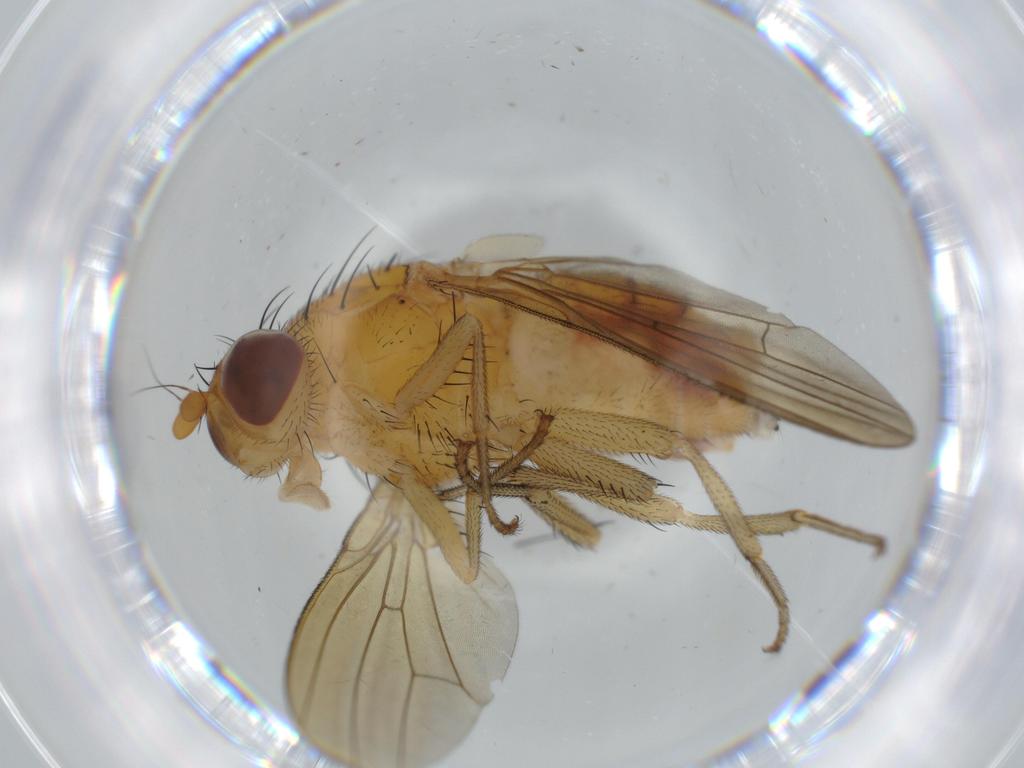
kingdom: Animalia
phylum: Arthropoda
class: Insecta
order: Diptera
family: Lauxaniidae
